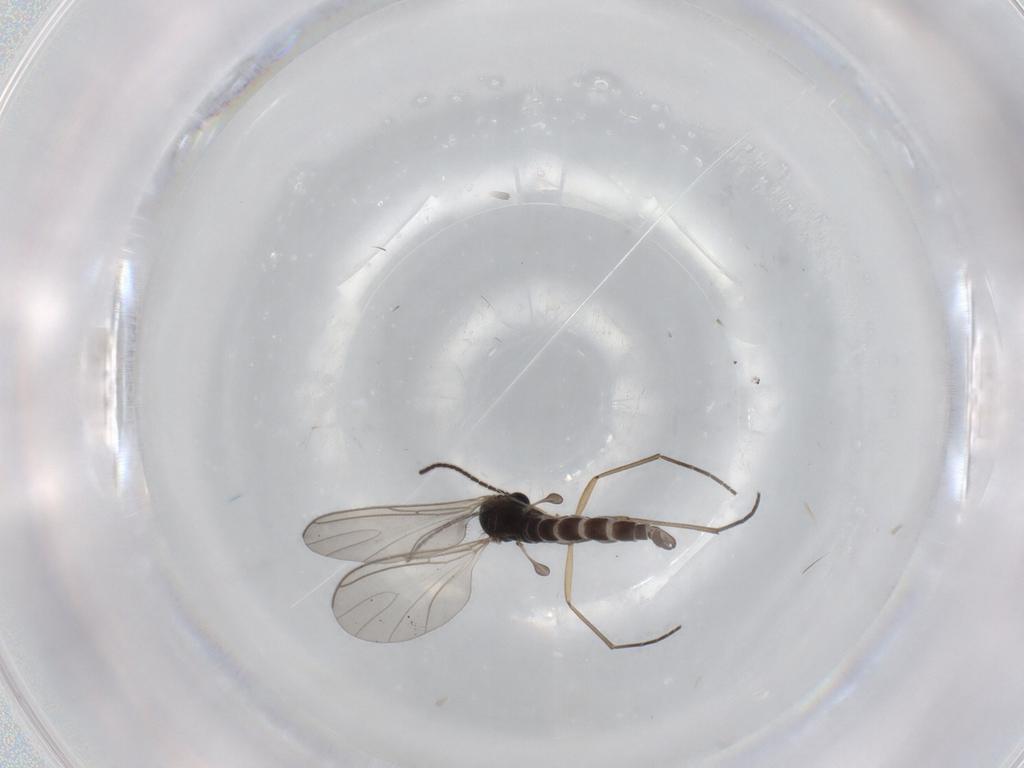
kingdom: Animalia
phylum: Arthropoda
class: Insecta
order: Diptera
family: Sciaridae
